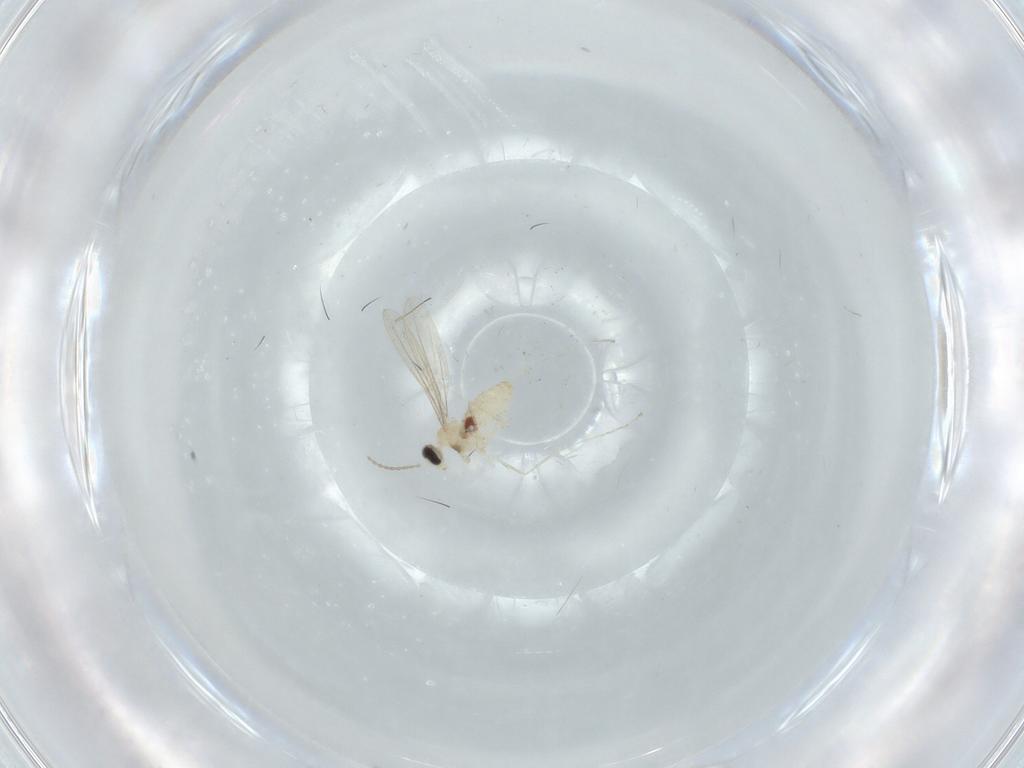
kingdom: Animalia
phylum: Arthropoda
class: Insecta
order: Diptera
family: Cecidomyiidae
